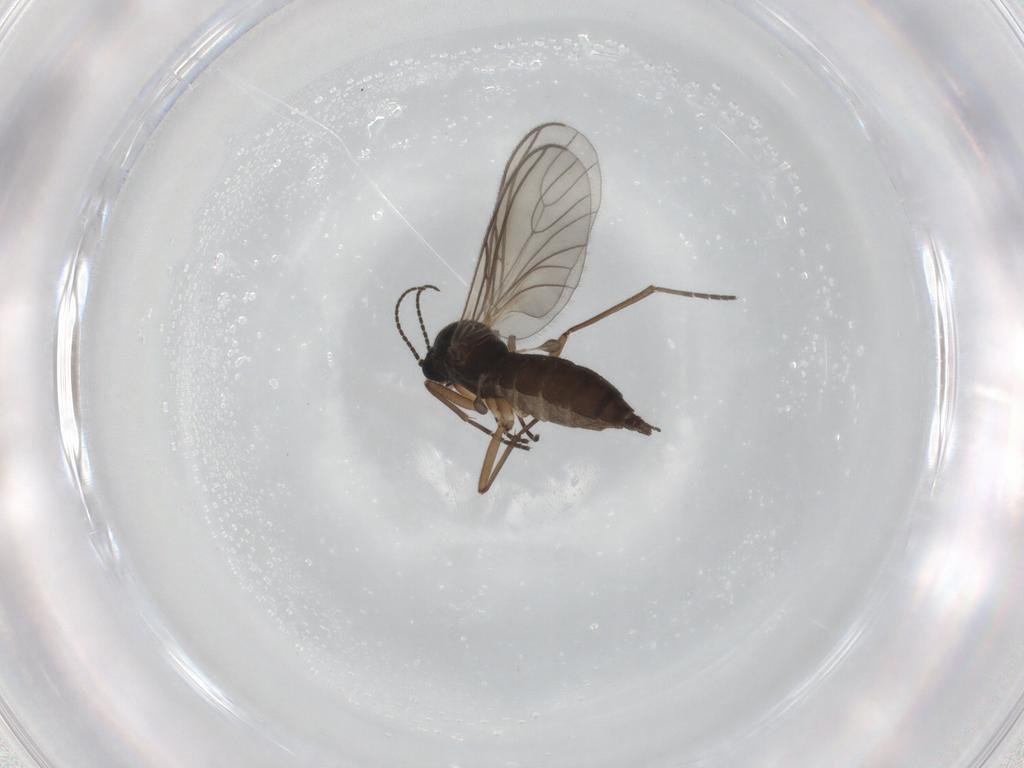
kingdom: Animalia
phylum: Arthropoda
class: Insecta
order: Diptera
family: Sciaridae
